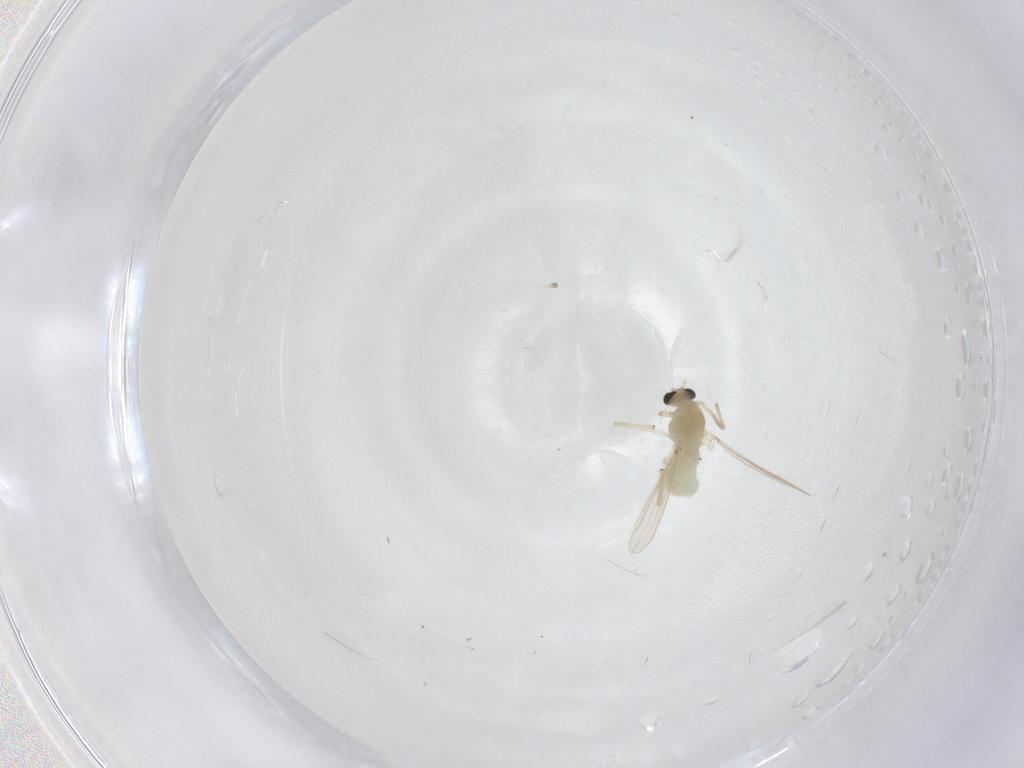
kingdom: Animalia
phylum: Arthropoda
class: Insecta
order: Diptera
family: Chironomidae
